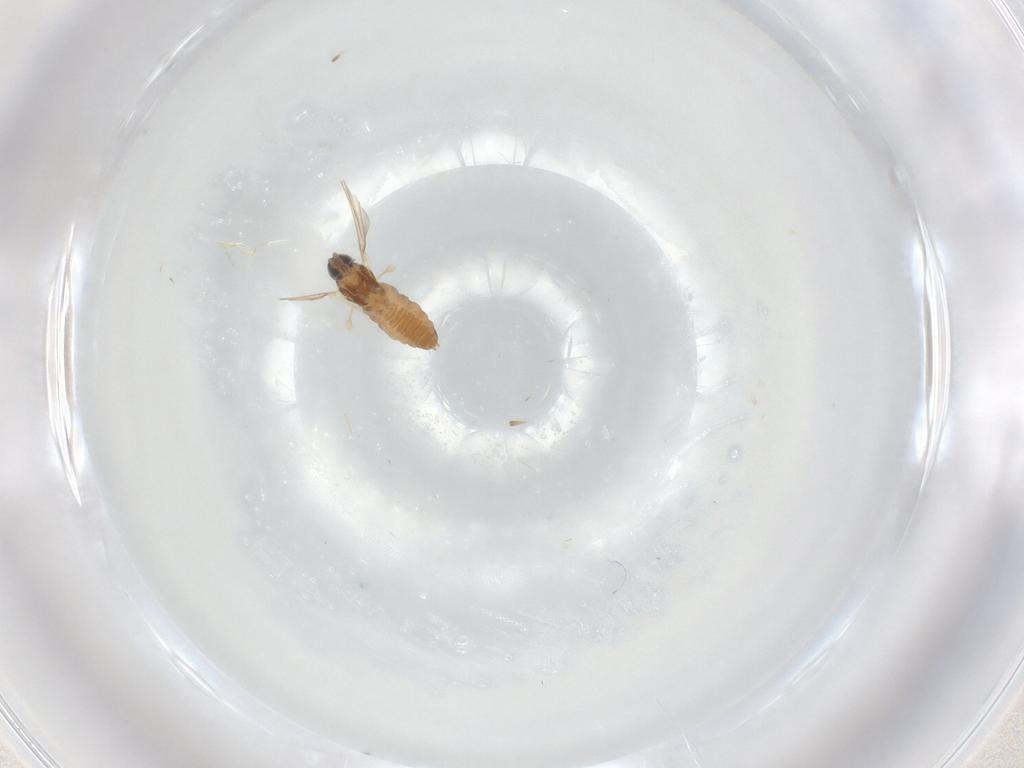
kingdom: Animalia
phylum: Arthropoda
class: Insecta
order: Diptera
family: Cecidomyiidae
